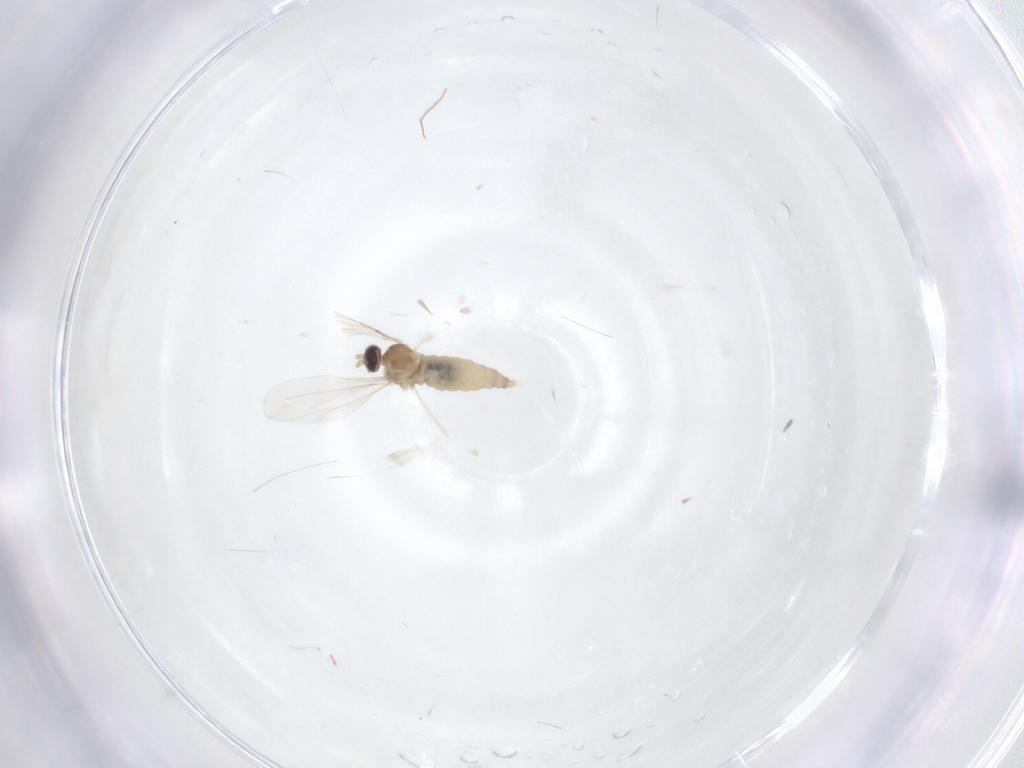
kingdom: Animalia
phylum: Arthropoda
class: Insecta
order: Diptera
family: Cecidomyiidae
